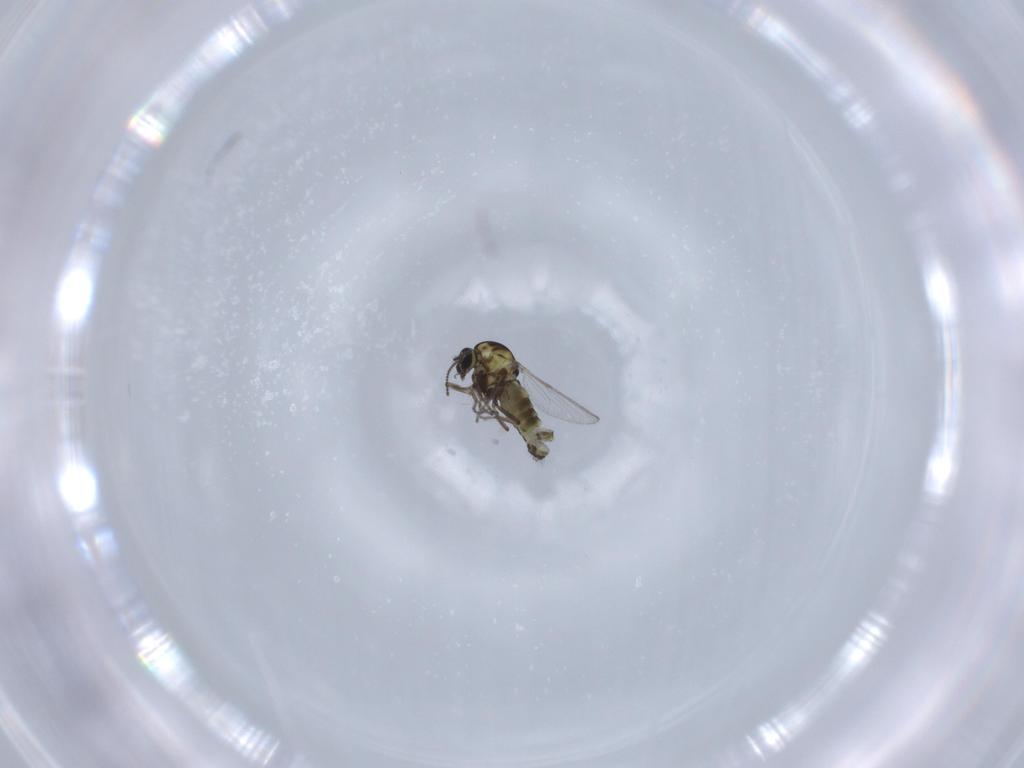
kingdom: Animalia
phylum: Arthropoda
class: Insecta
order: Diptera
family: Ceratopogonidae
